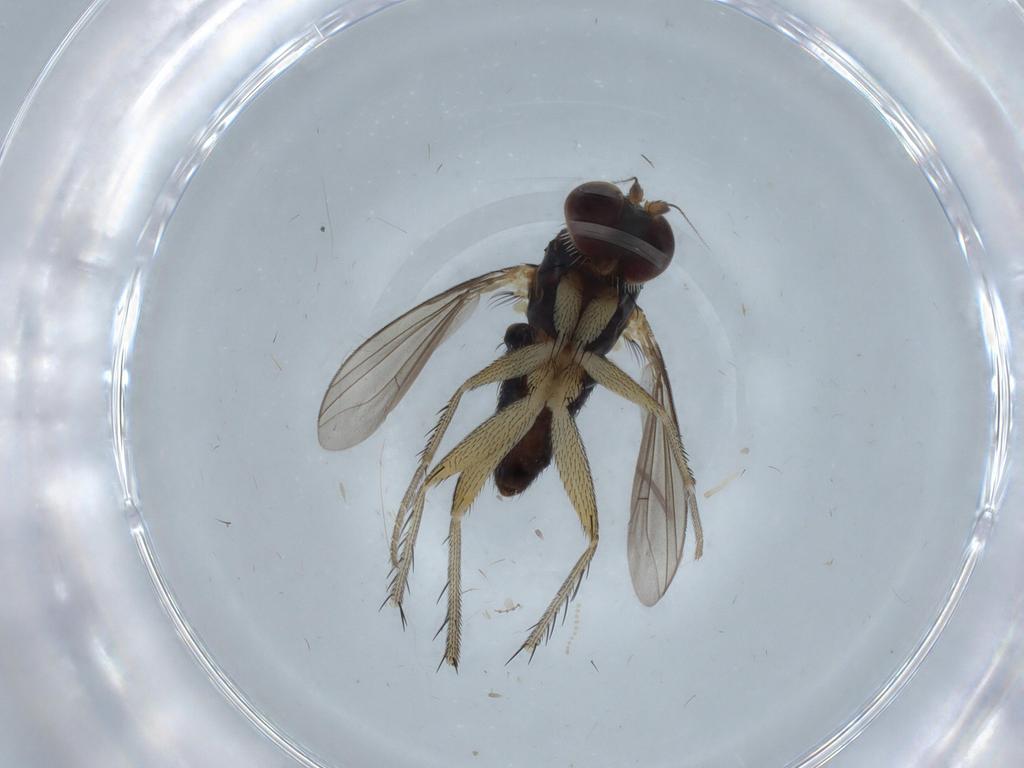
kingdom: Animalia
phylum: Arthropoda
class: Insecta
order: Diptera
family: Dolichopodidae
